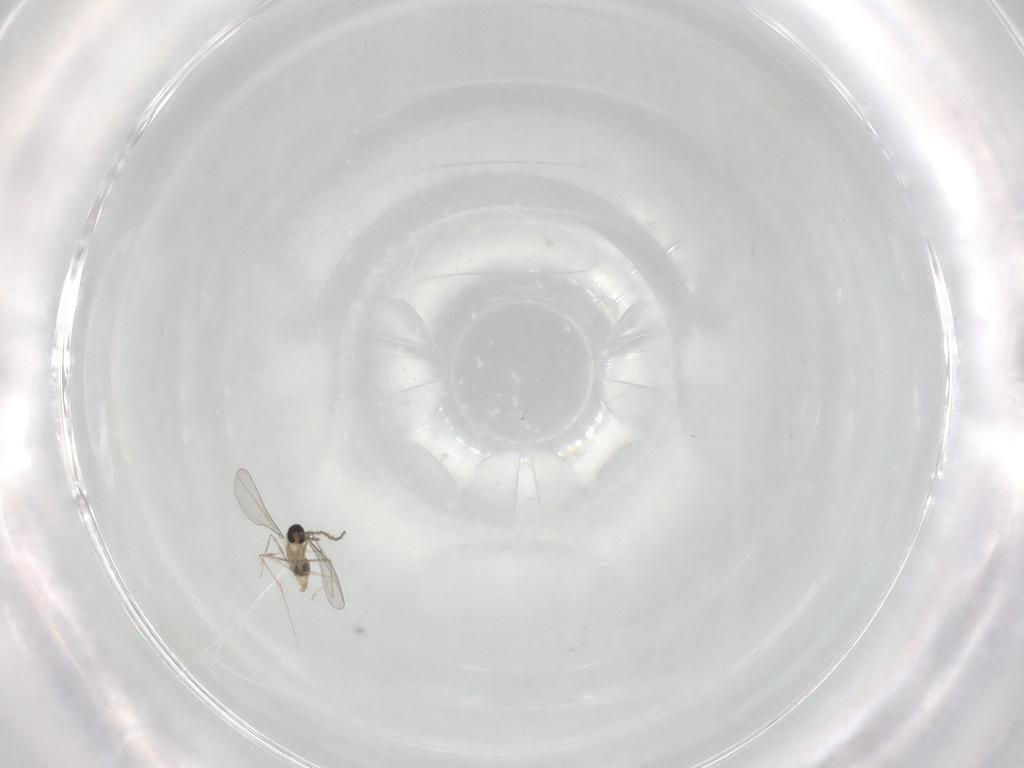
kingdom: Animalia
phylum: Arthropoda
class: Insecta
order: Diptera
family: Cecidomyiidae
